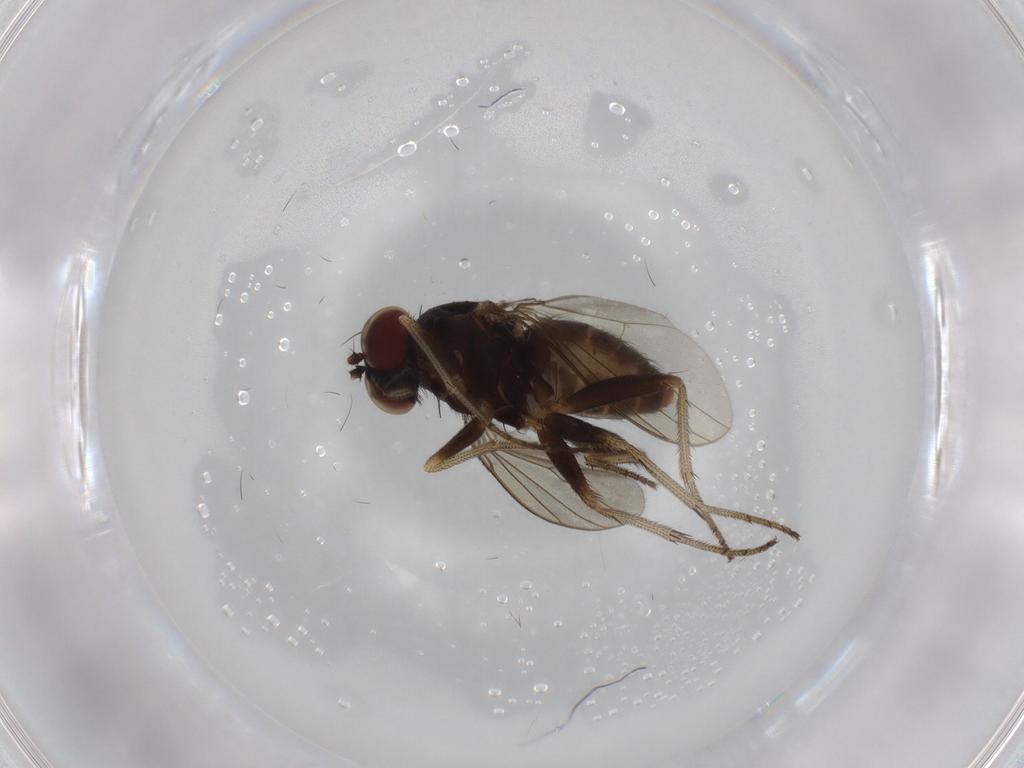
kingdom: Animalia
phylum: Arthropoda
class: Insecta
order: Diptera
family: Dolichopodidae
